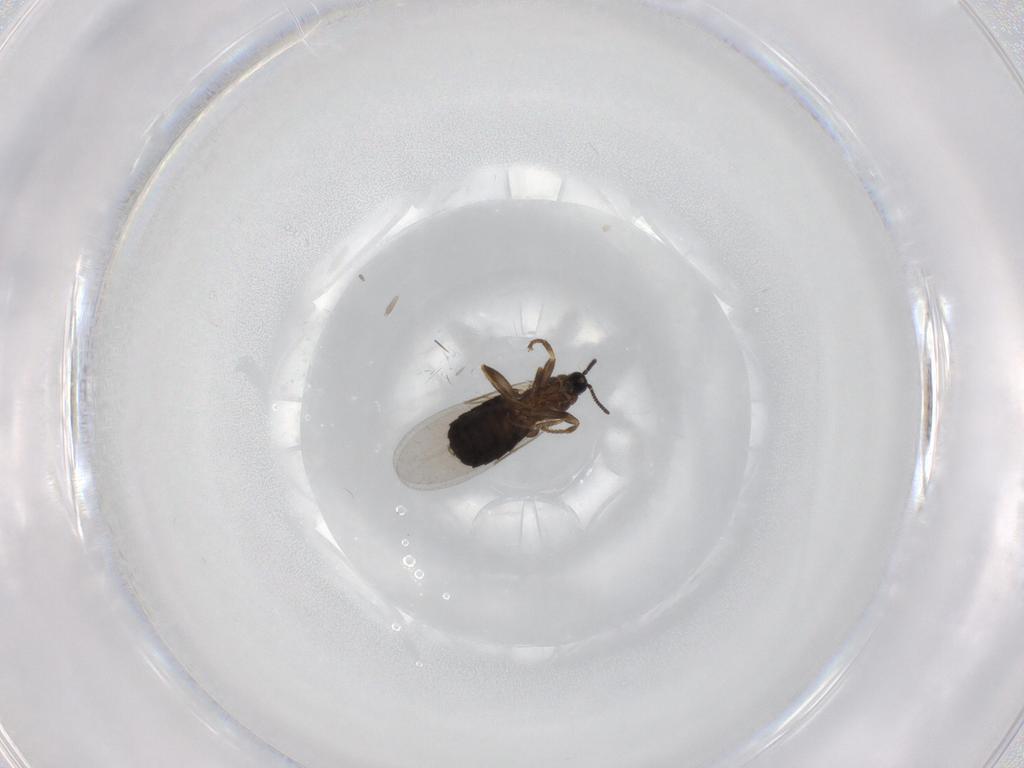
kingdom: Animalia
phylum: Arthropoda
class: Insecta
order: Diptera
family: Scatopsidae
